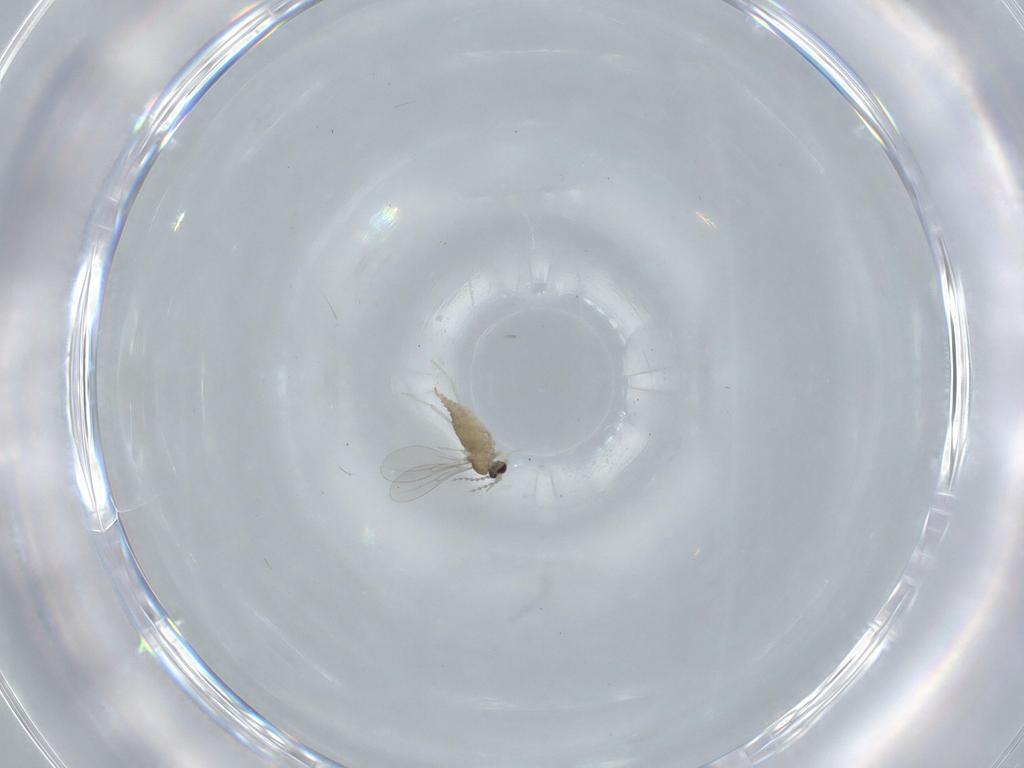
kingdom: Animalia
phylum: Arthropoda
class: Insecta
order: Diptera
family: Cecidomyiidae
